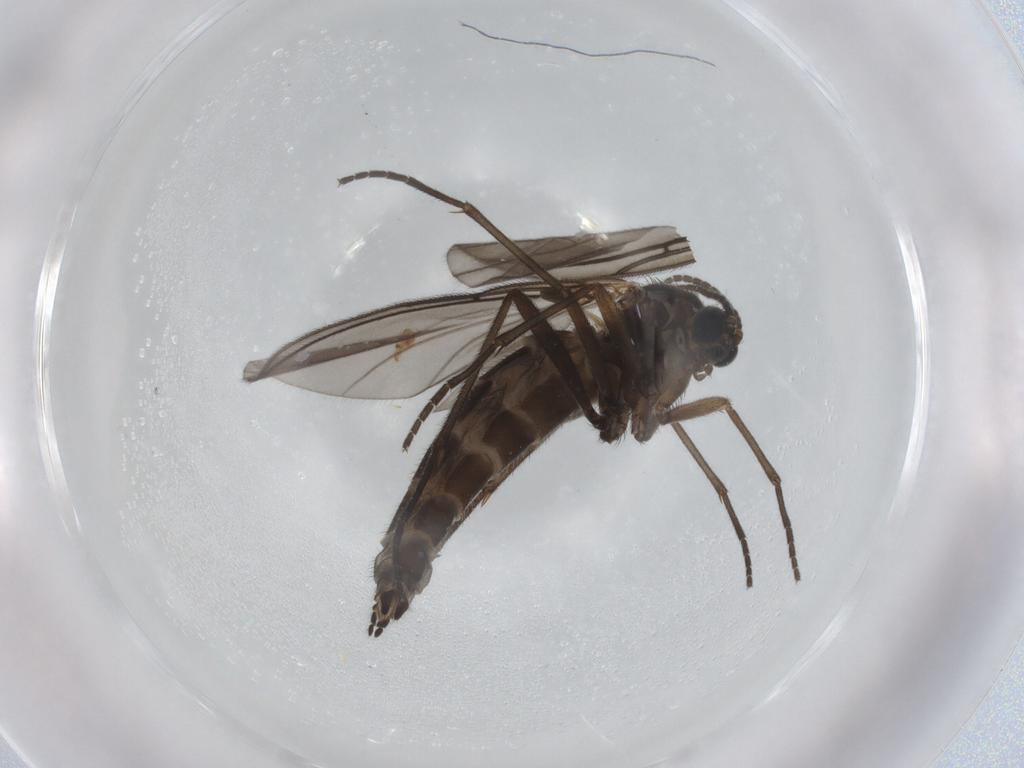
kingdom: Animalia
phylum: Arthropoda
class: Insecta
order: Diptera
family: Sciaridae
